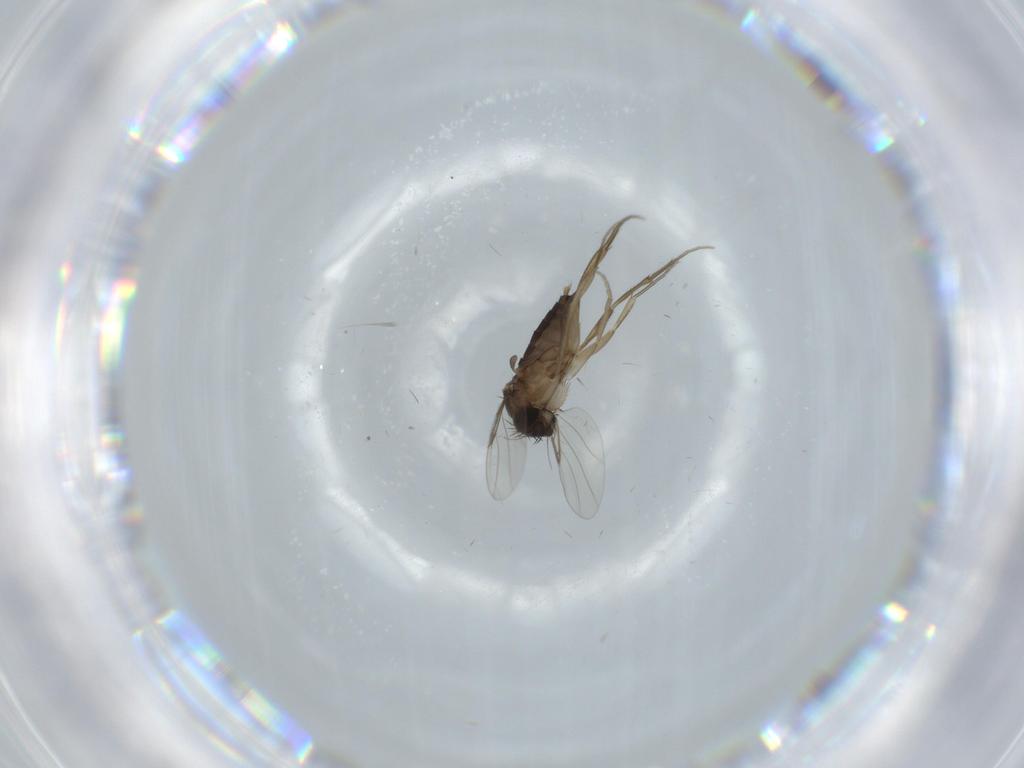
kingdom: Animalia
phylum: Arthropoda
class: Insecta
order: Diptera
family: Phoridae
